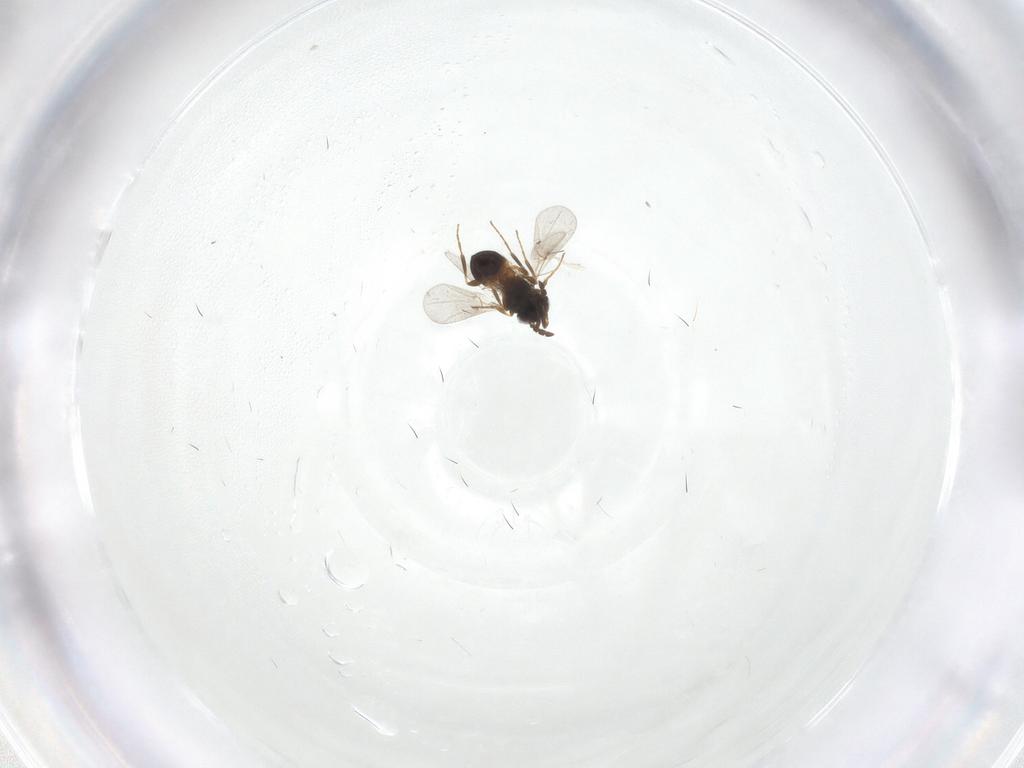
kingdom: Animalia
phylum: Arthropoda
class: Insecta
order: Hymenoptera
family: Platygastridae
